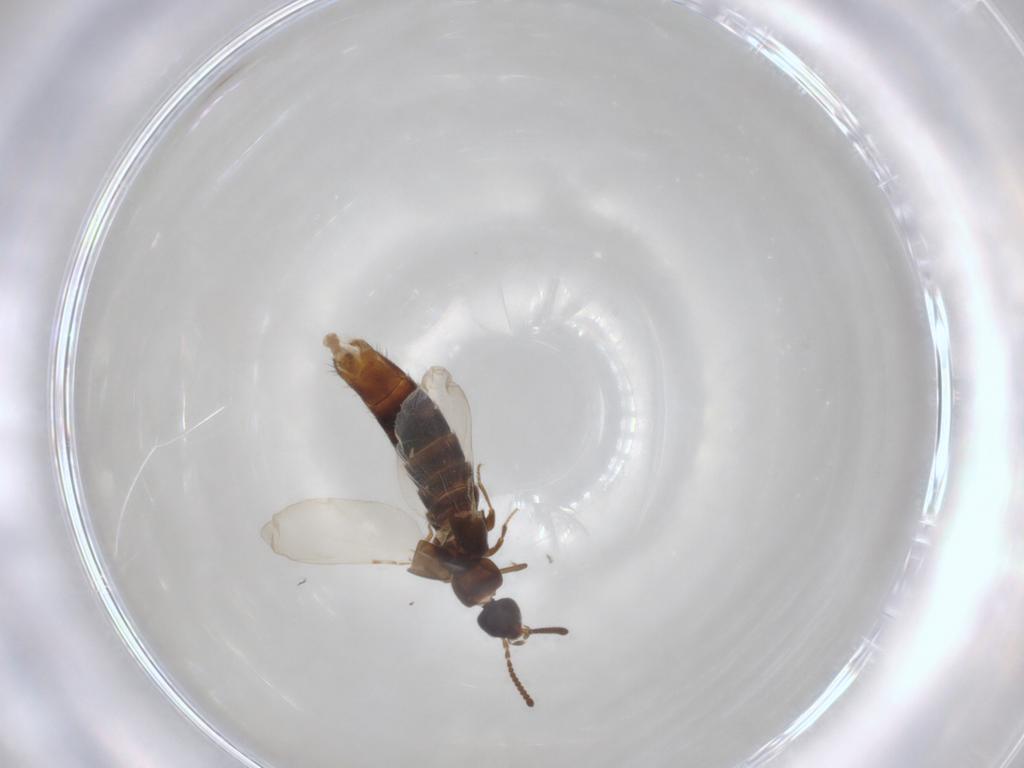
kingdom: Animalia
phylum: Arthropoda
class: Insecta
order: Coleoptera
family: Staphylinidae
